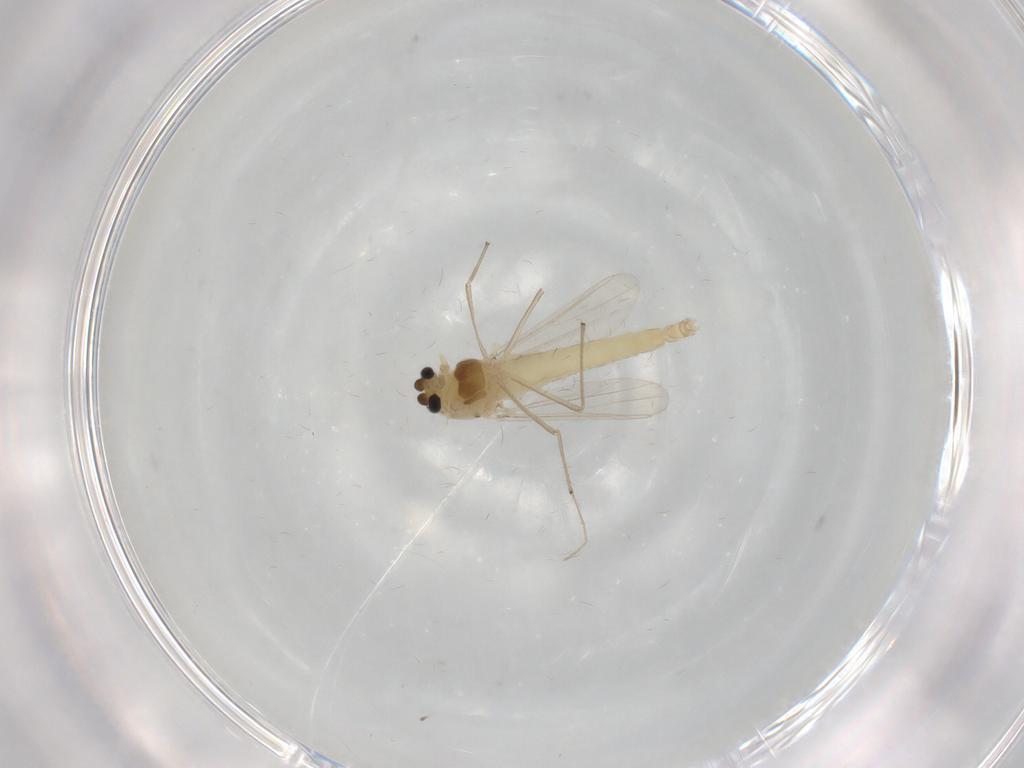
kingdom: Animalia
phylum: Arthropoda
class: Insecta
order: Diptera
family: Chironomidae
